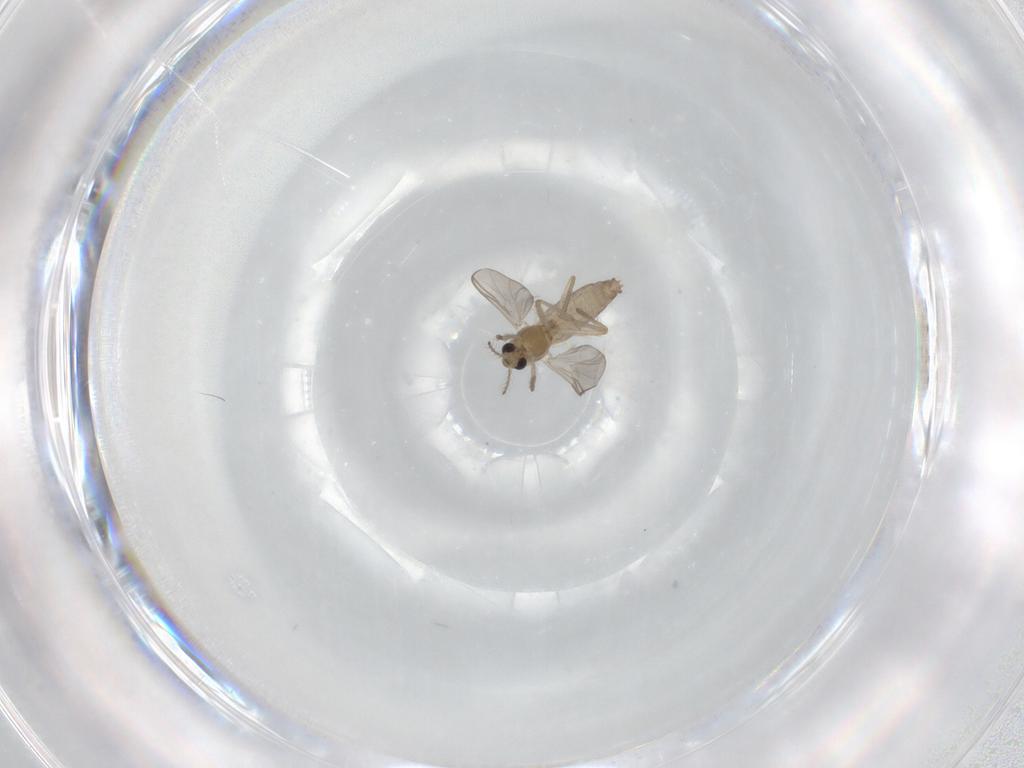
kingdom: Animalia
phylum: Arthropoda
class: Insecta
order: Diptera
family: Chironomidae
